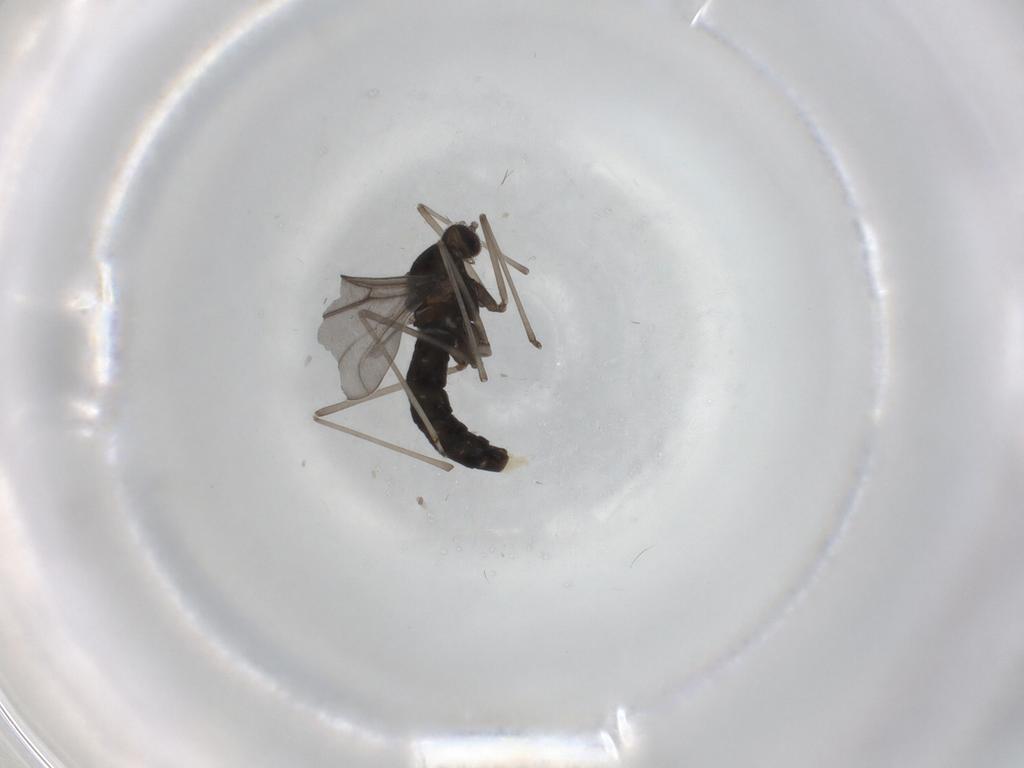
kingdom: Animalia
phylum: Arthropoda
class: Insecta
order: Diptera
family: Cecidomyiidae
